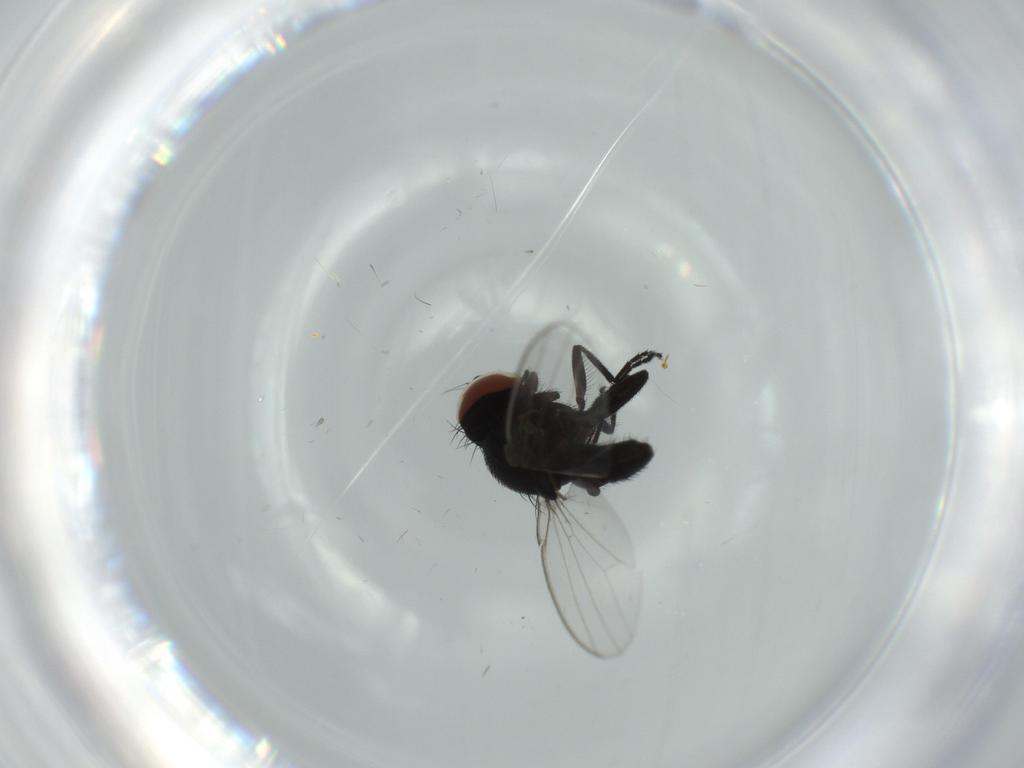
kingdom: Animalia
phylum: Arthropoda
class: Insecta
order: Diptera
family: Milichiidae
